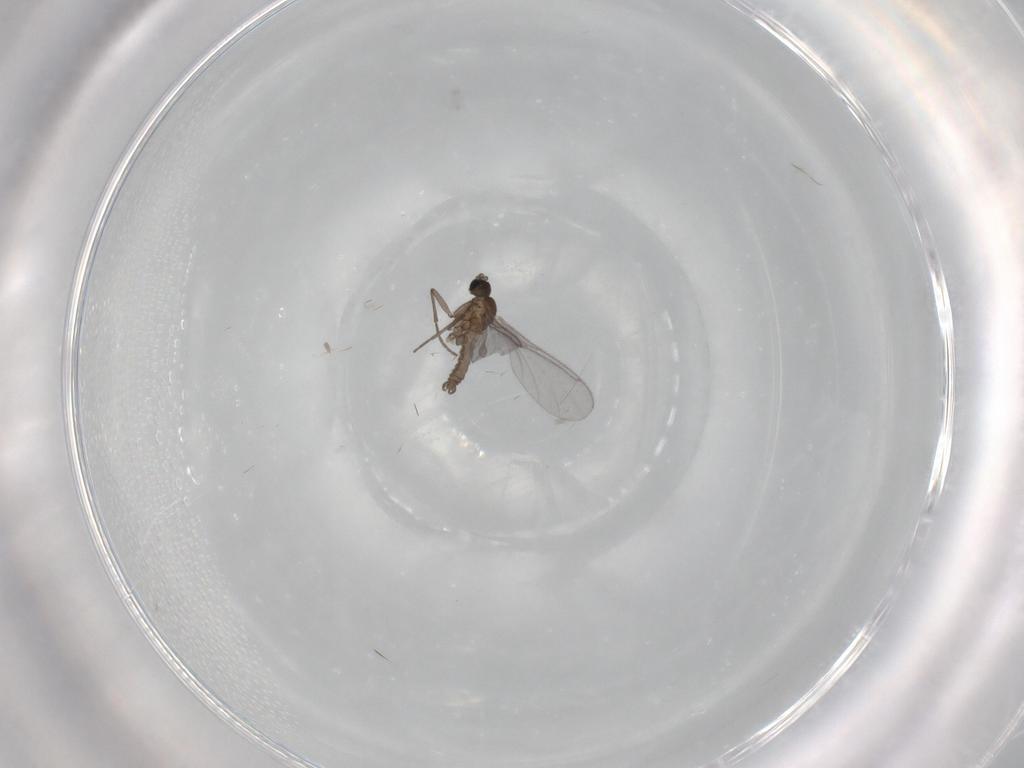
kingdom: Animalia
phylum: Arthropoda
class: Insecta
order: Diptera
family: Sciaridae
